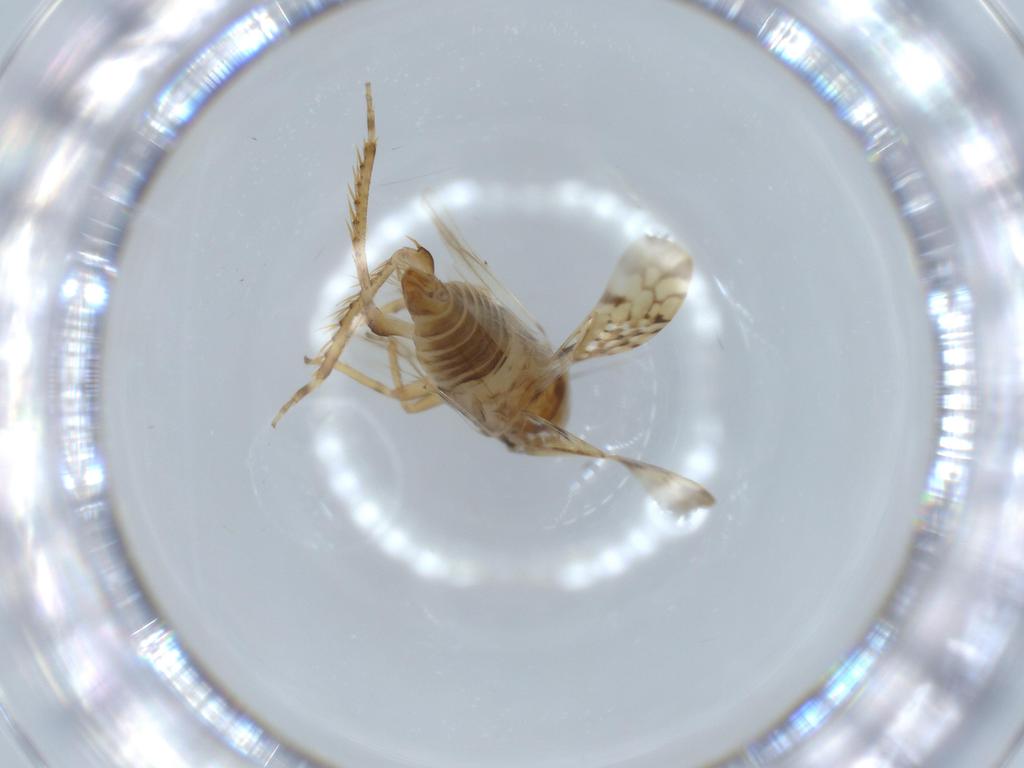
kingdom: Animalia
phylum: Arthropoda
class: Insecta
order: Hemiptera
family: Cicadellidae
